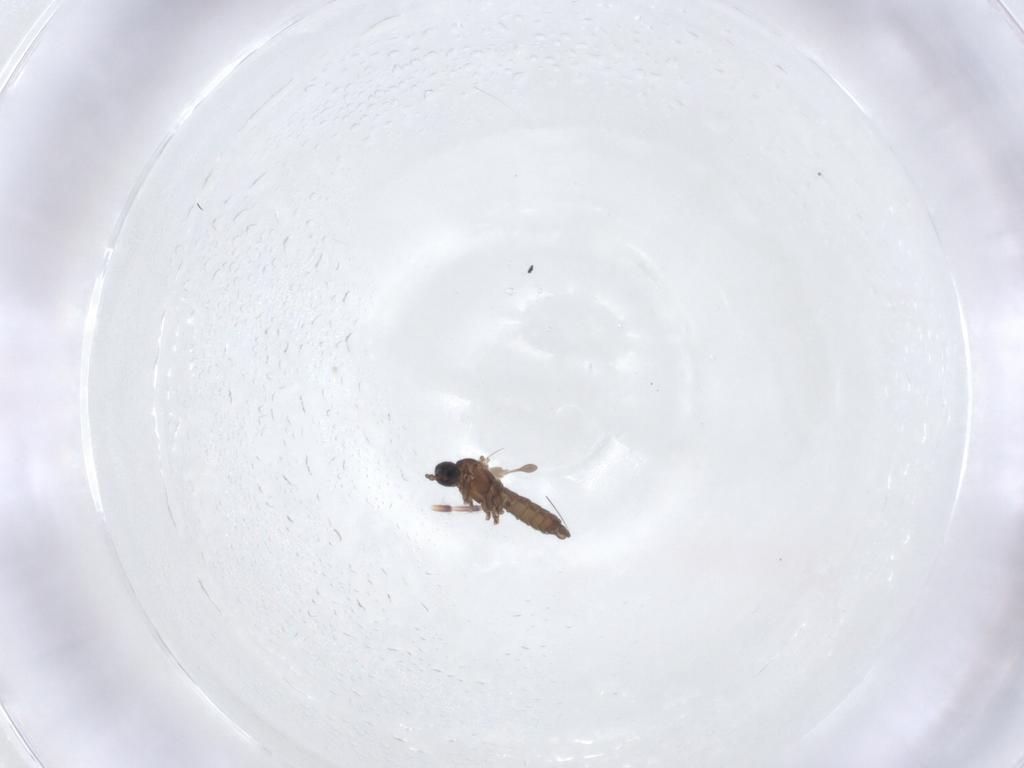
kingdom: Animalia
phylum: Arthropoda
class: Insecta
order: Diptera
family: Sciaridae
